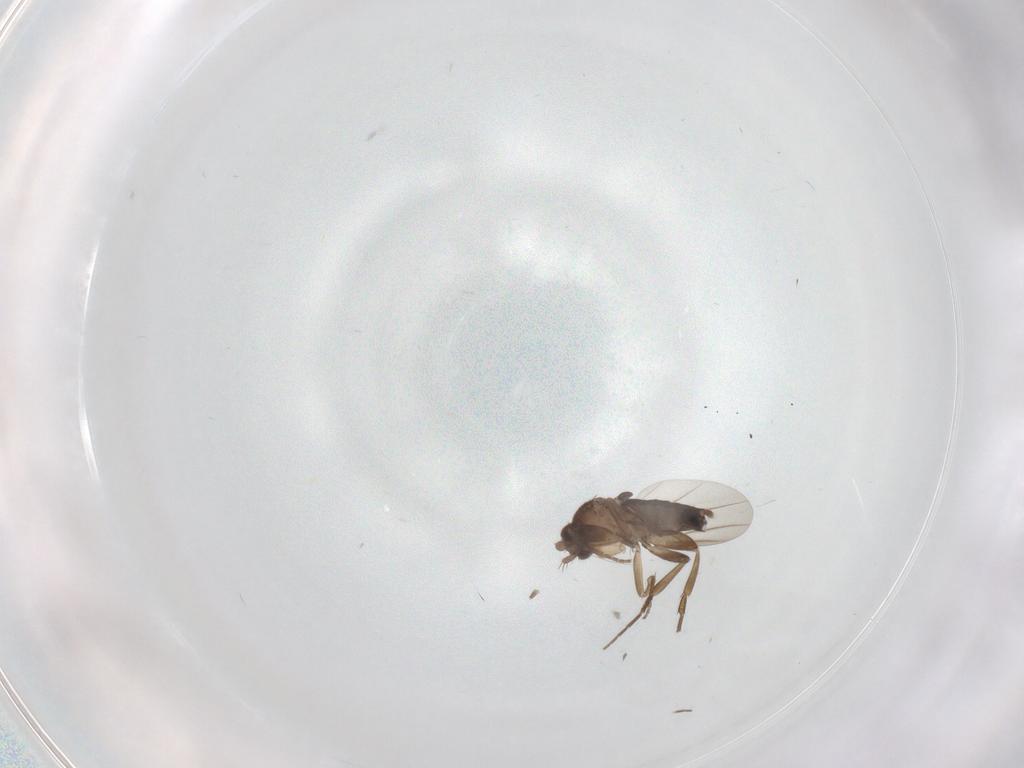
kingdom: Animalia
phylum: Arthropoda
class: Insecta
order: Diptera
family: Phoridae
